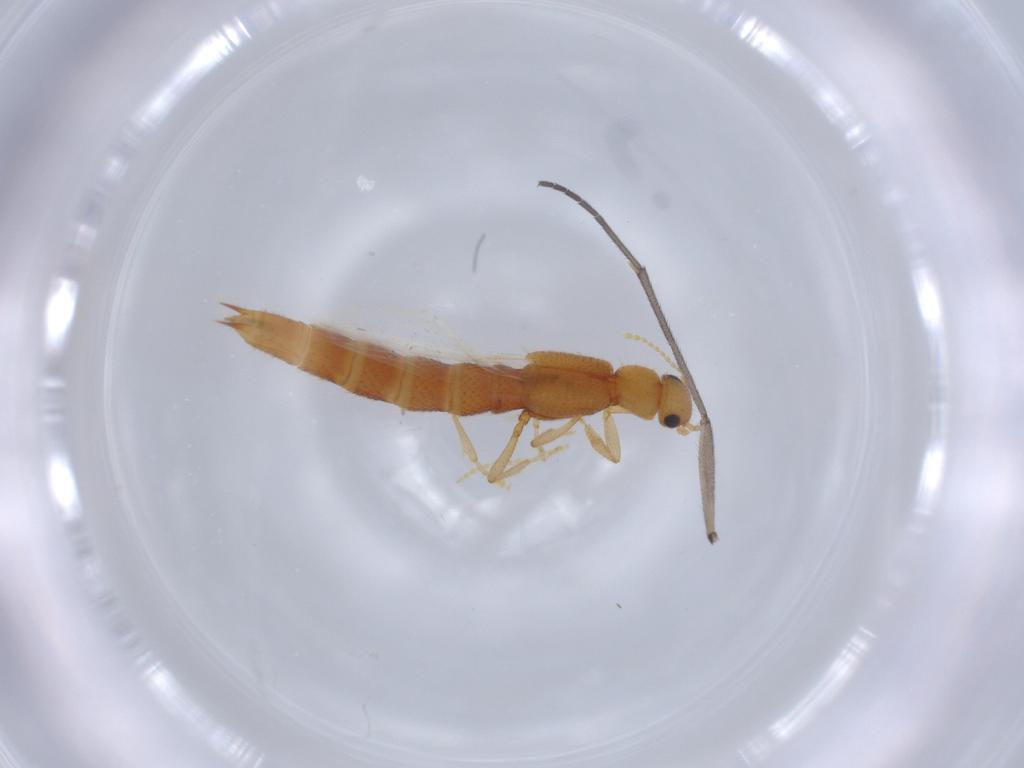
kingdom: Animalia
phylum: Arthropoda
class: Insecta
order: Coleoptera
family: Staphylinidae
